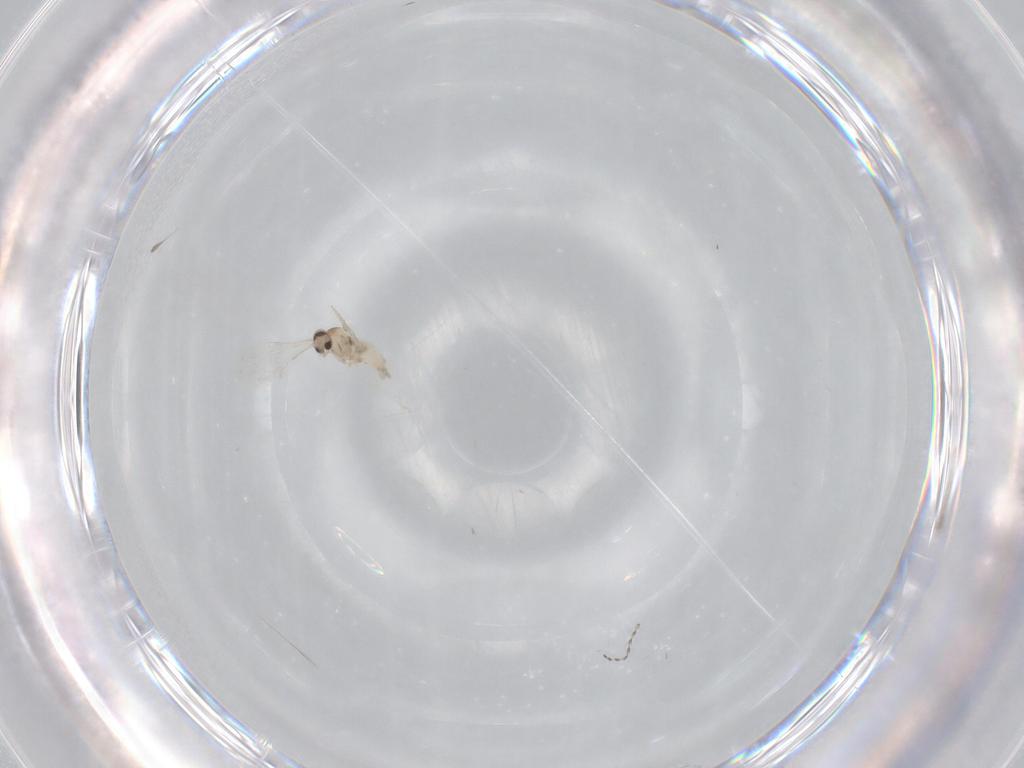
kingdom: Animalia
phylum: Arthropoda
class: Insecta
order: Diptera
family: Cecidomyiidae
